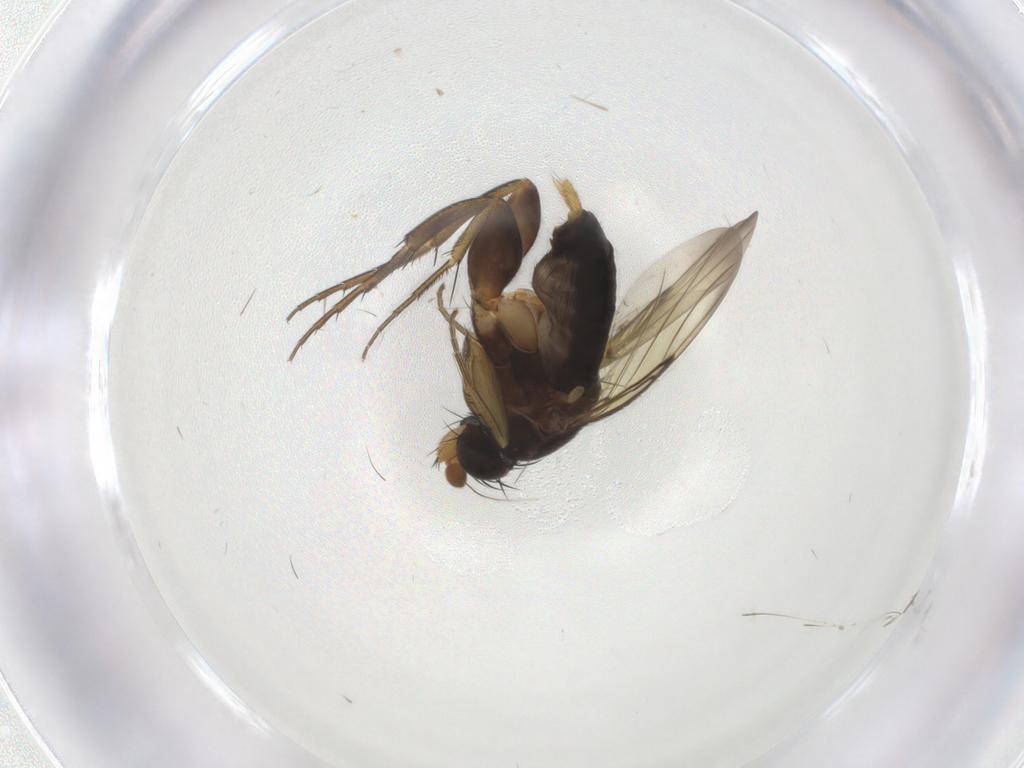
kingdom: Animalia
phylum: Arthropoda
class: Insecta
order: Diptera
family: Phoridae
